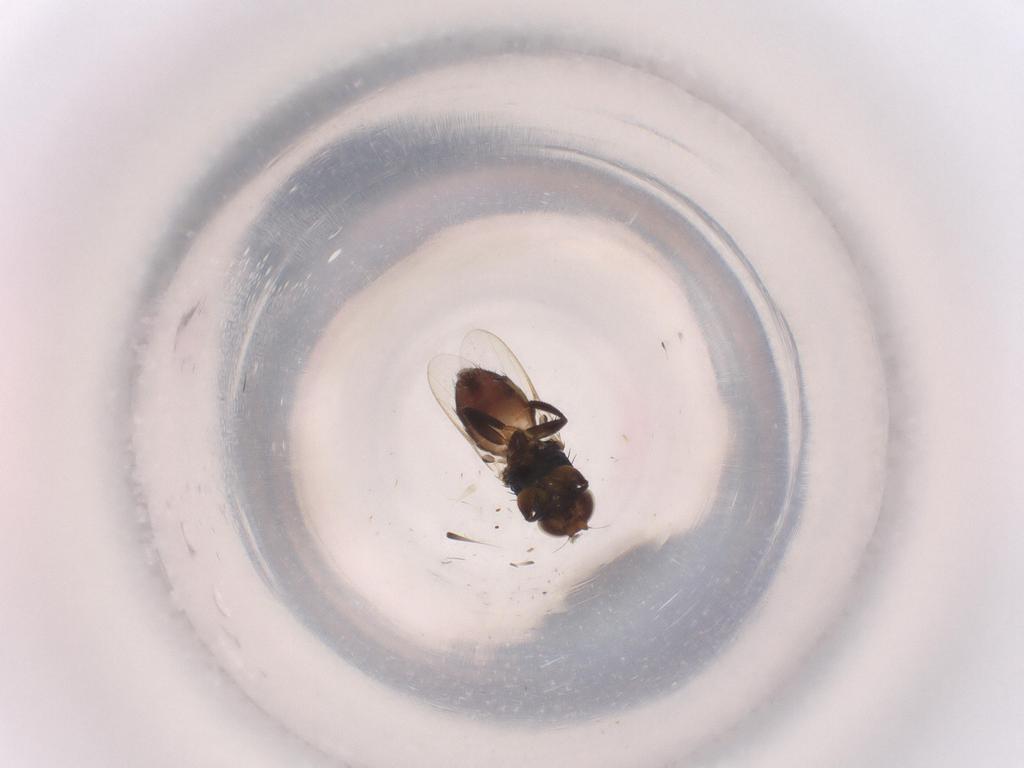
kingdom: Animalia
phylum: Arthropoda
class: Insecta
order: Diptera
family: Chloropidae
